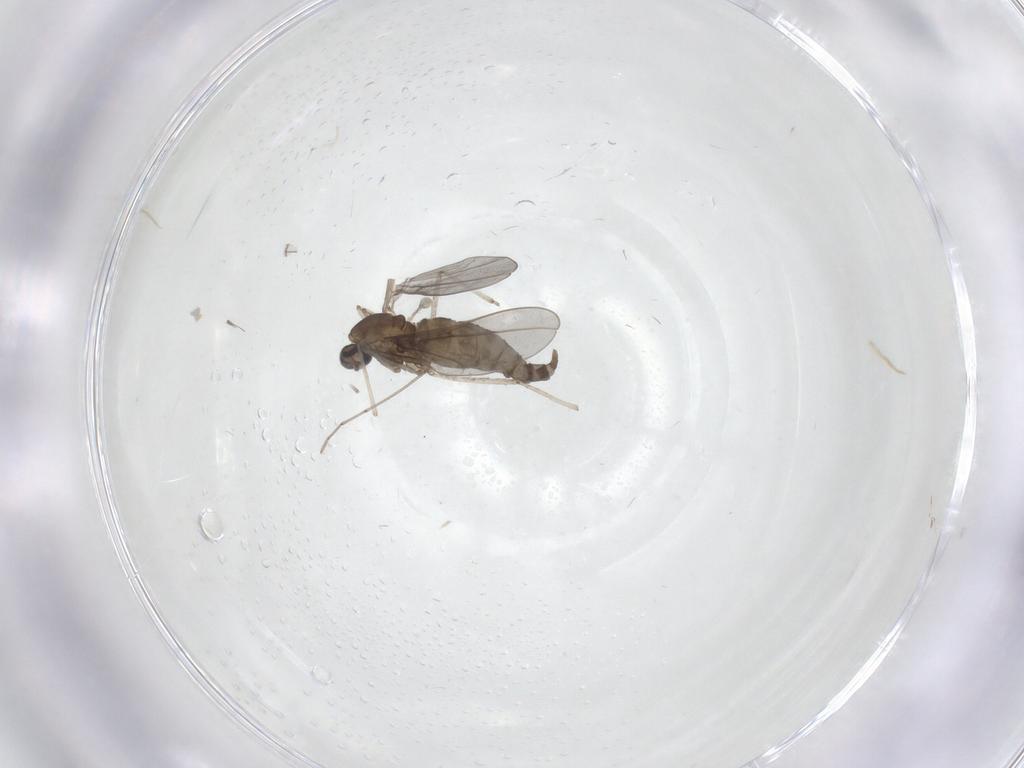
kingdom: Animalia
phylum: Arthropoda
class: Insecta
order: Diptera
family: Cecidomyiidae
